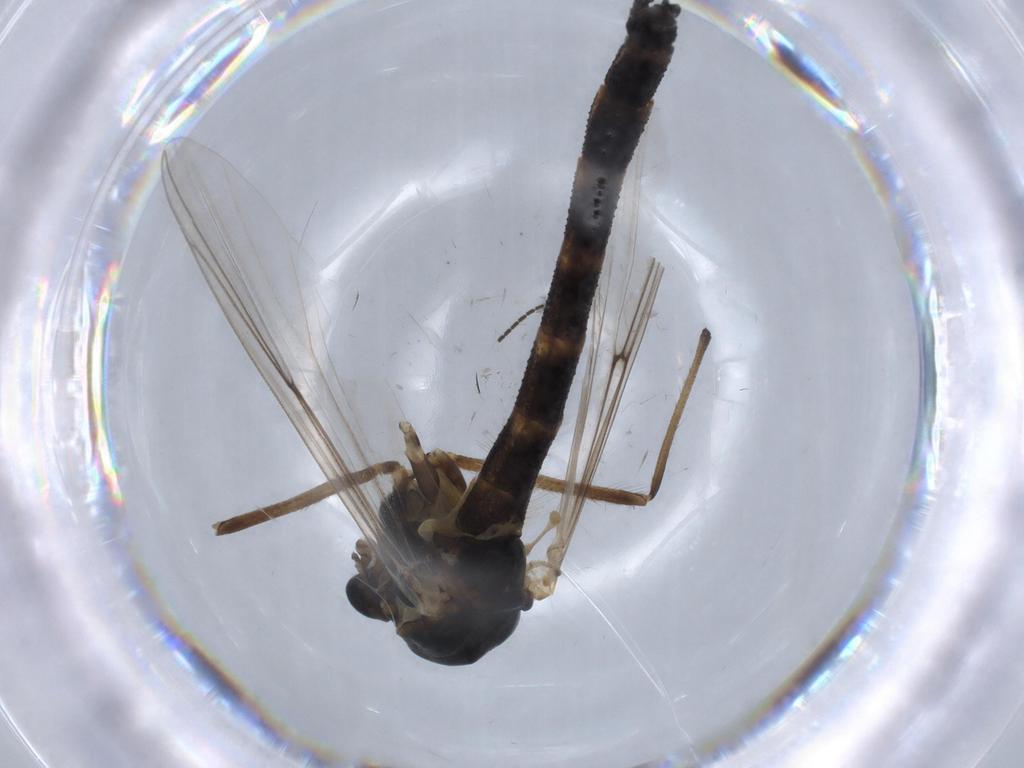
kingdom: Animalia
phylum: Arthropoda
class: Insecta
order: Diptera
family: Chironomidae
